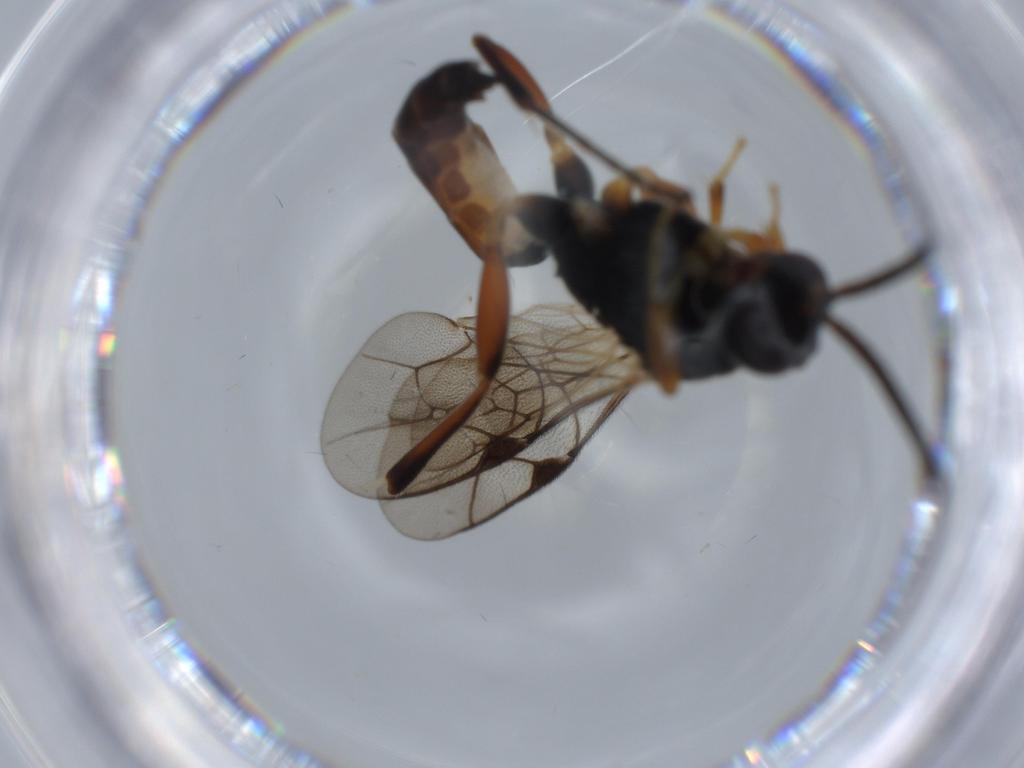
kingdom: Animalia
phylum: Arthropoda
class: Insecta
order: Hymenoptera
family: Ichneumonidae
